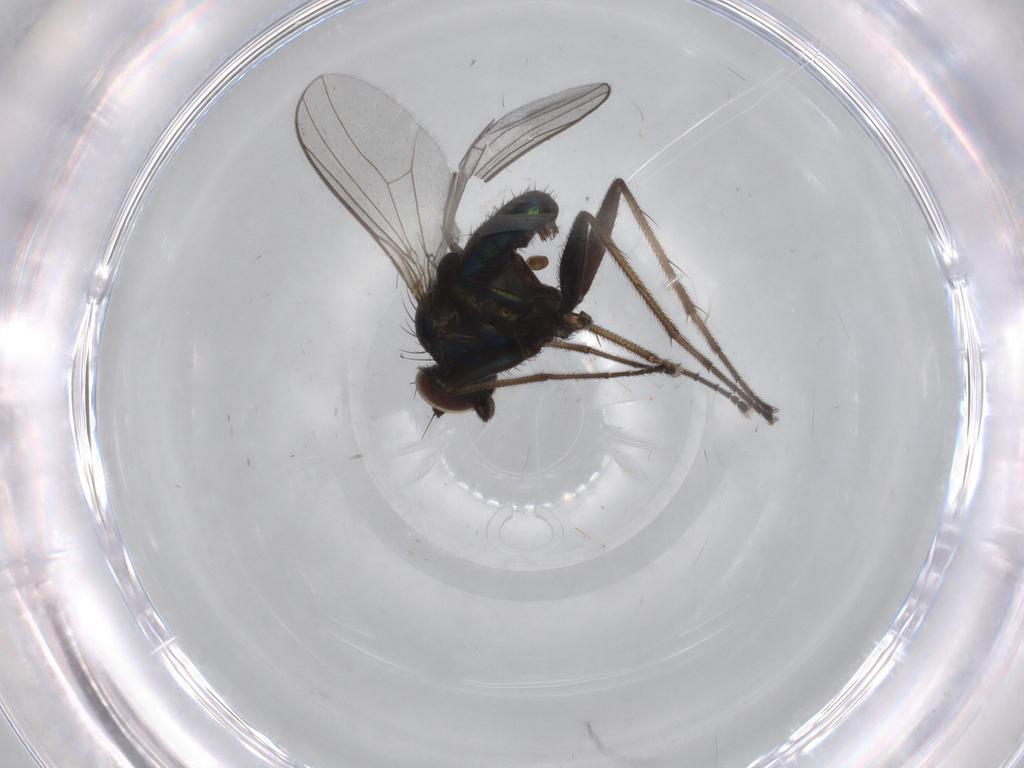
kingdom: Animalia
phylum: Arthropoda
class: Insecta
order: Diptera
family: Dolichopodidae
